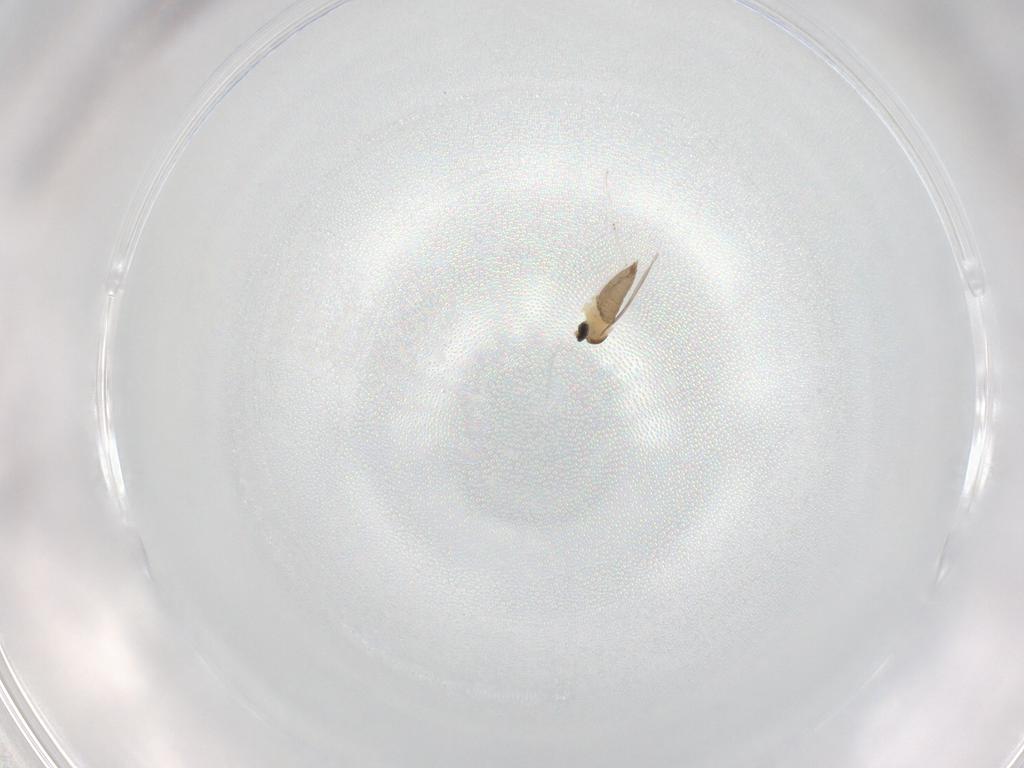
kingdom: Animalia
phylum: Arthropoda
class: Insecta
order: Diptera
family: Cecidomyiidae
